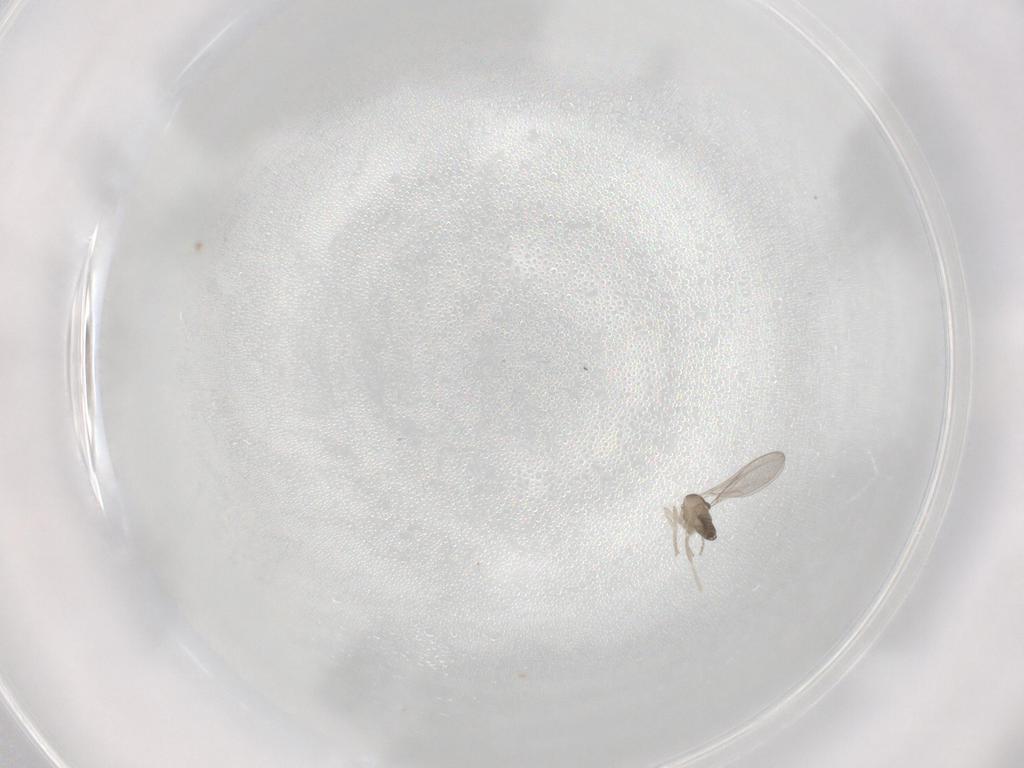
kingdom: Animalia
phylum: Arthropoda
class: Insecta
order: Diptera
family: Cecidomyiidae
